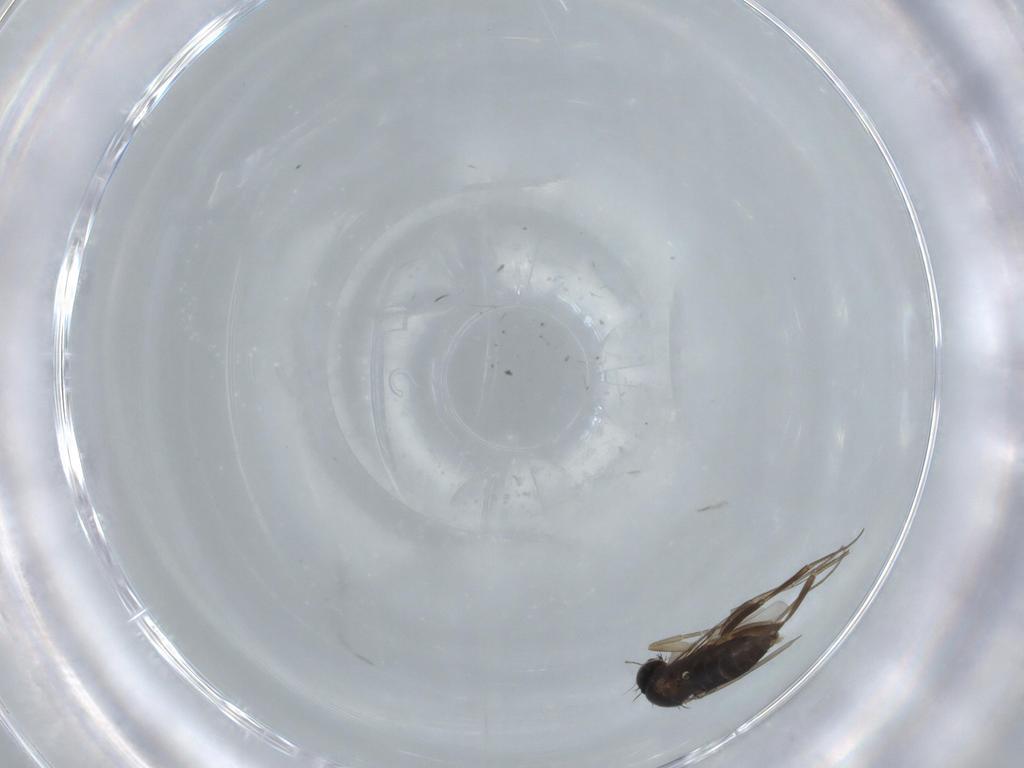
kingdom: Animalia
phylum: Arthropoda
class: Insecta
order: Diptera
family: Phoridae
